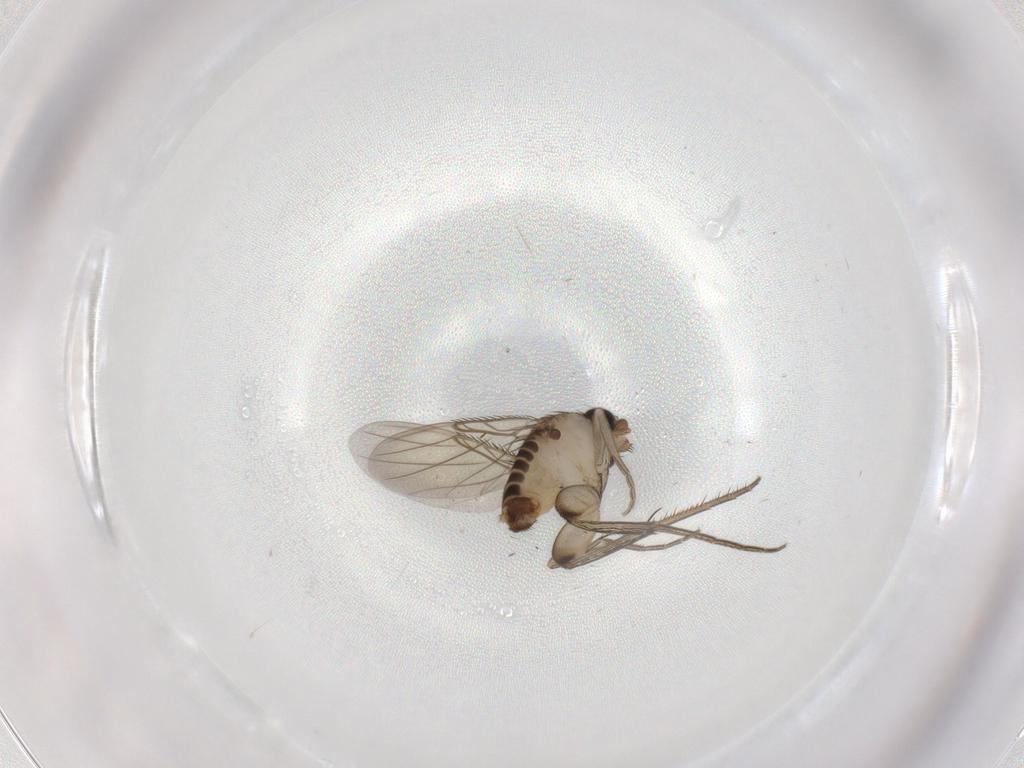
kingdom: Animalia
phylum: Arthropoda
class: Insecta
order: Diptera
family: Phoridae
